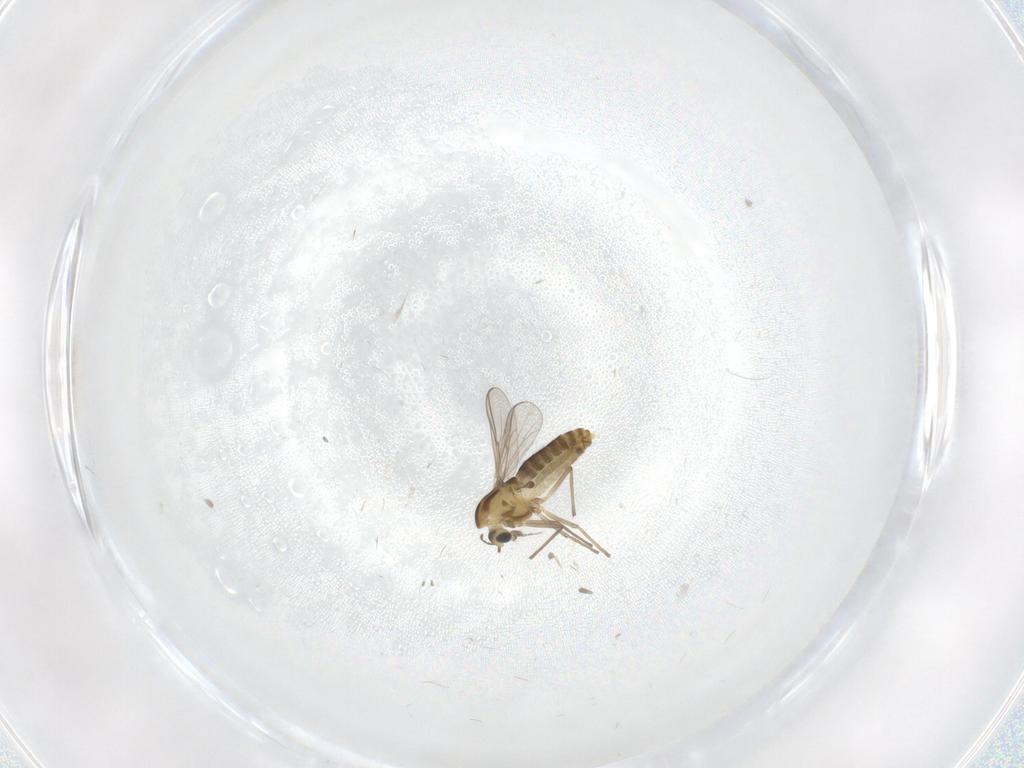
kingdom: Animalia
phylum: Arthropoda
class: Insecta
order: Diptera
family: Chironomidae
